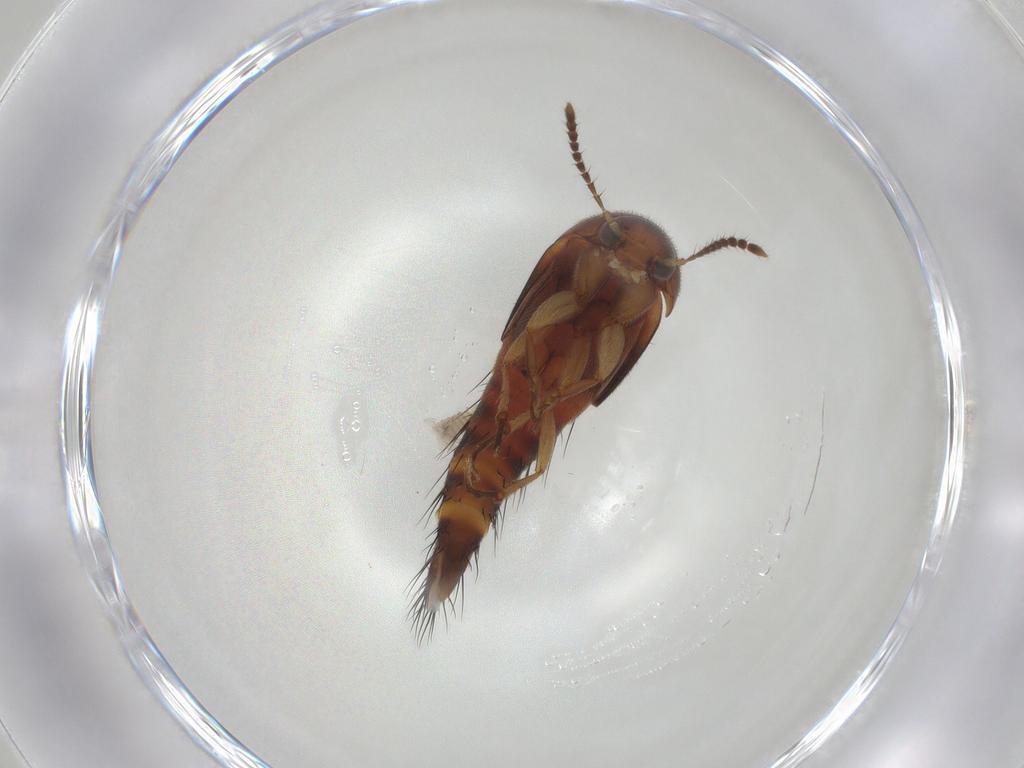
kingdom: Animalia
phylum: Arthropoda
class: Insecta
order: Coleoptera
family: Staphylinidae
